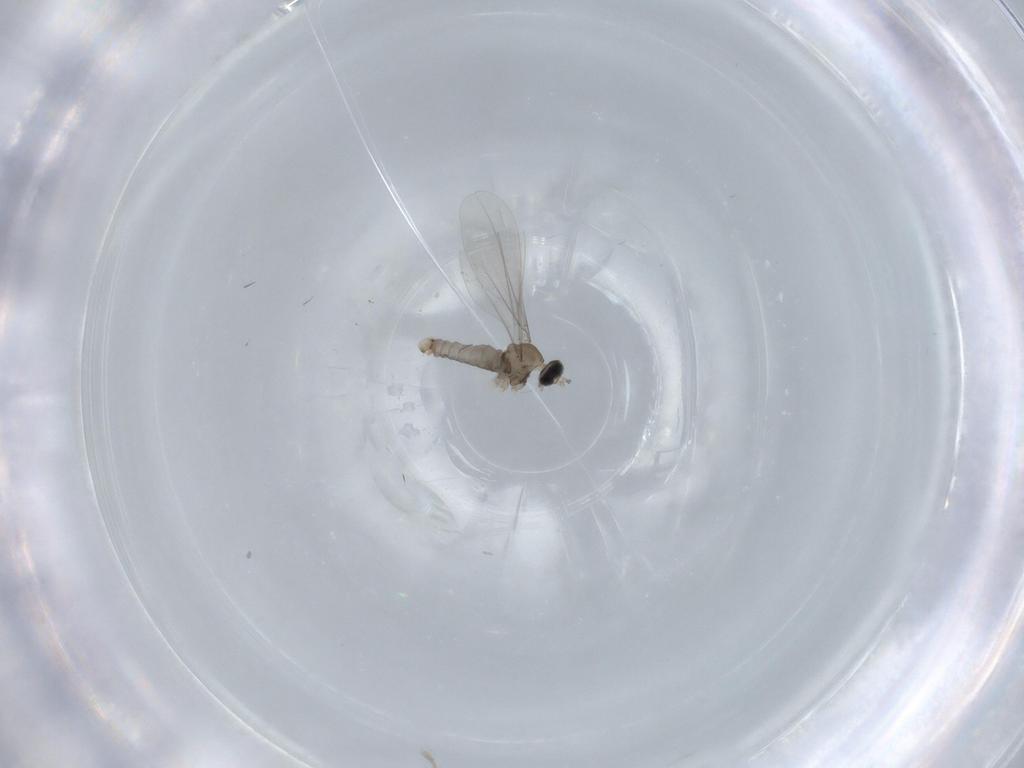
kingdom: Animalia
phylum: Arthropoda
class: Insecta
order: Diptera
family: Cecidomyiidae
